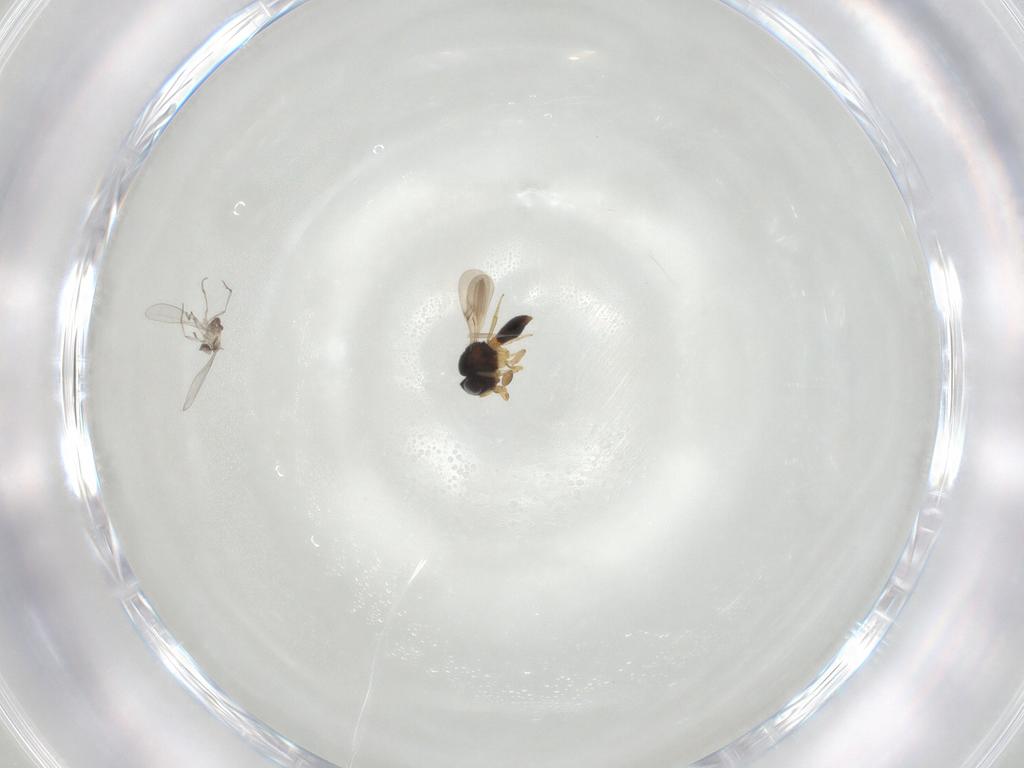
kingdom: Animalia
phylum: Arthropoda
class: Insecta
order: Diptera
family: Cecidomyiidae
